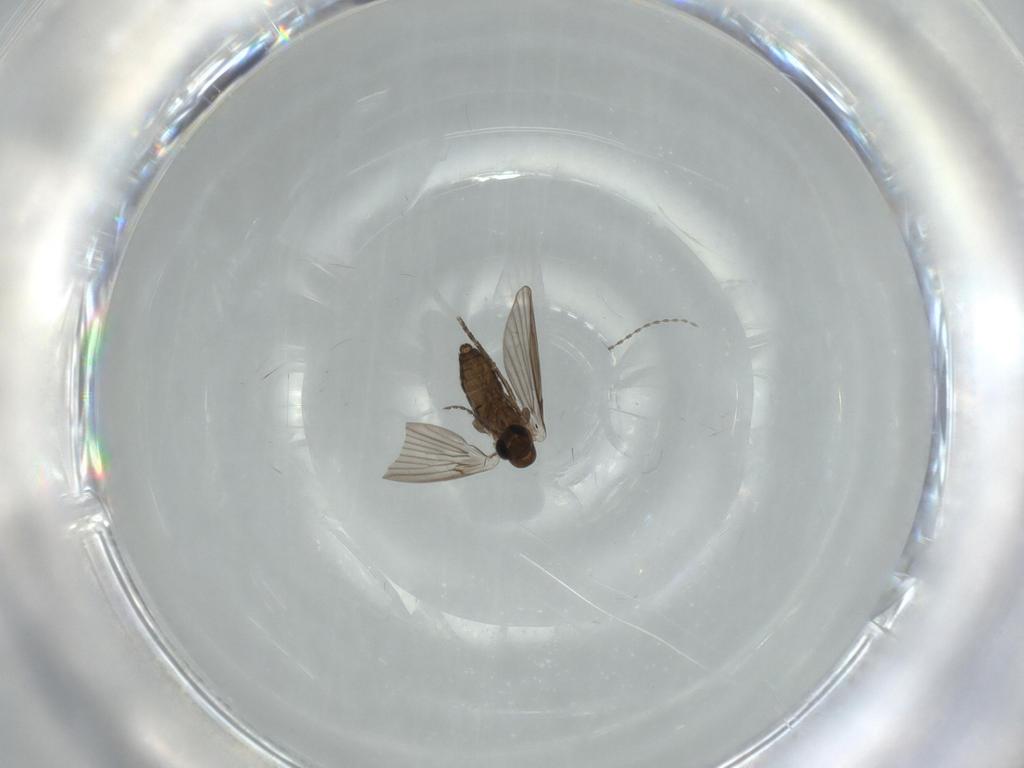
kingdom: Animalia
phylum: Arthropoda
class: Insecta
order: Diptera
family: Psychodidae
